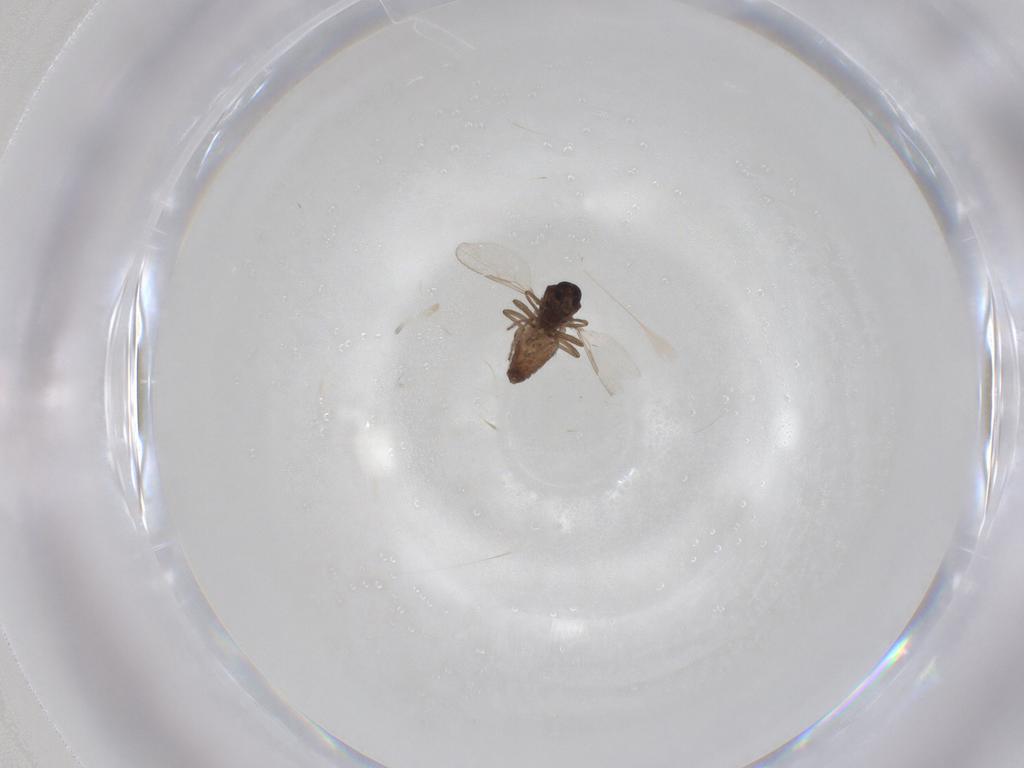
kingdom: Animalia
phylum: Arthropoda
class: Insecta
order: Diptera
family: Ceratopogonidae
